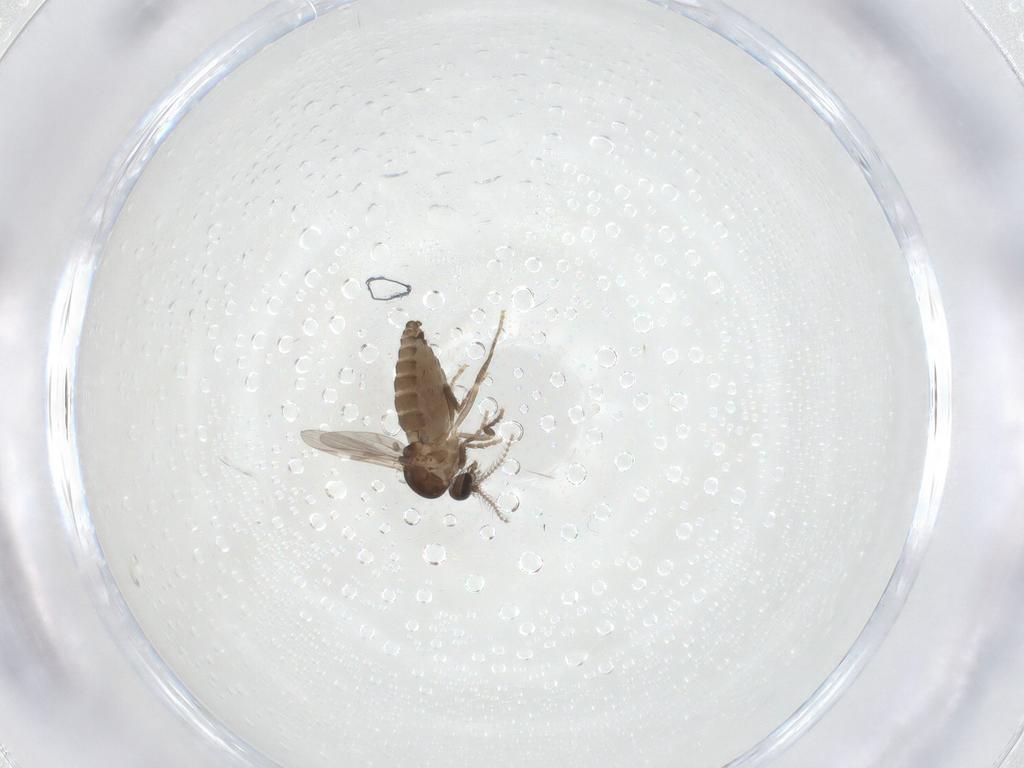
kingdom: Animalia
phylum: Arthropoda
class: Insecta
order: Diptera
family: Ceratopogonidae
